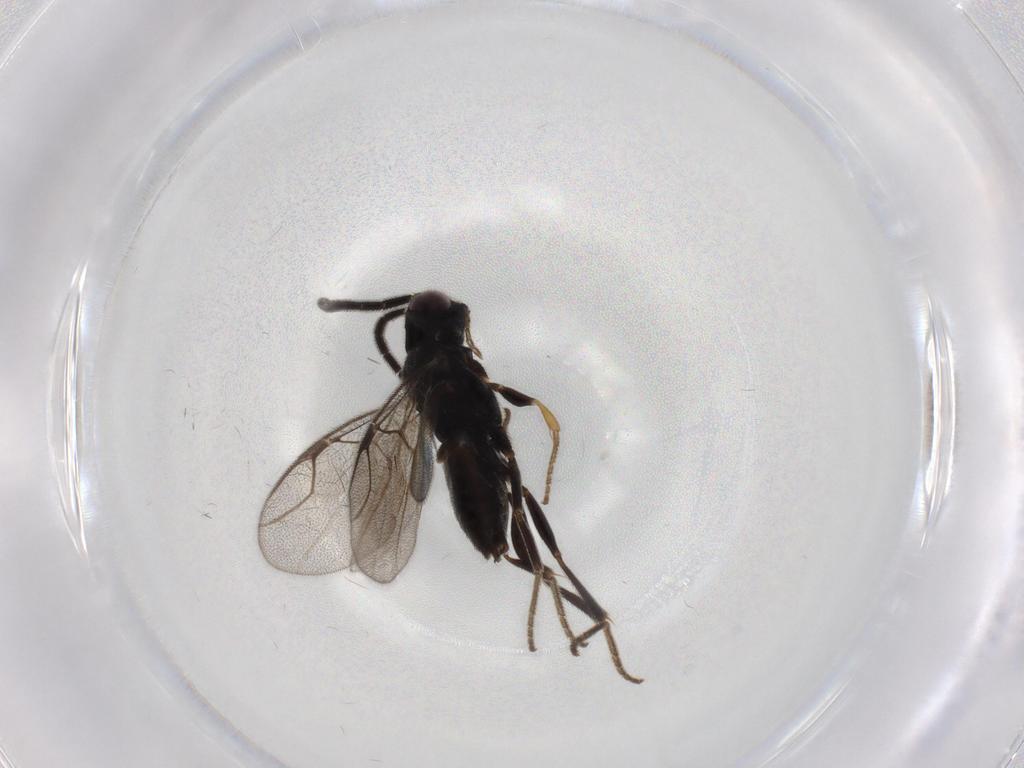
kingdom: Animalia
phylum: Arthropoda
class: Insecta
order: Hymenoptera
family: Dryinidae
